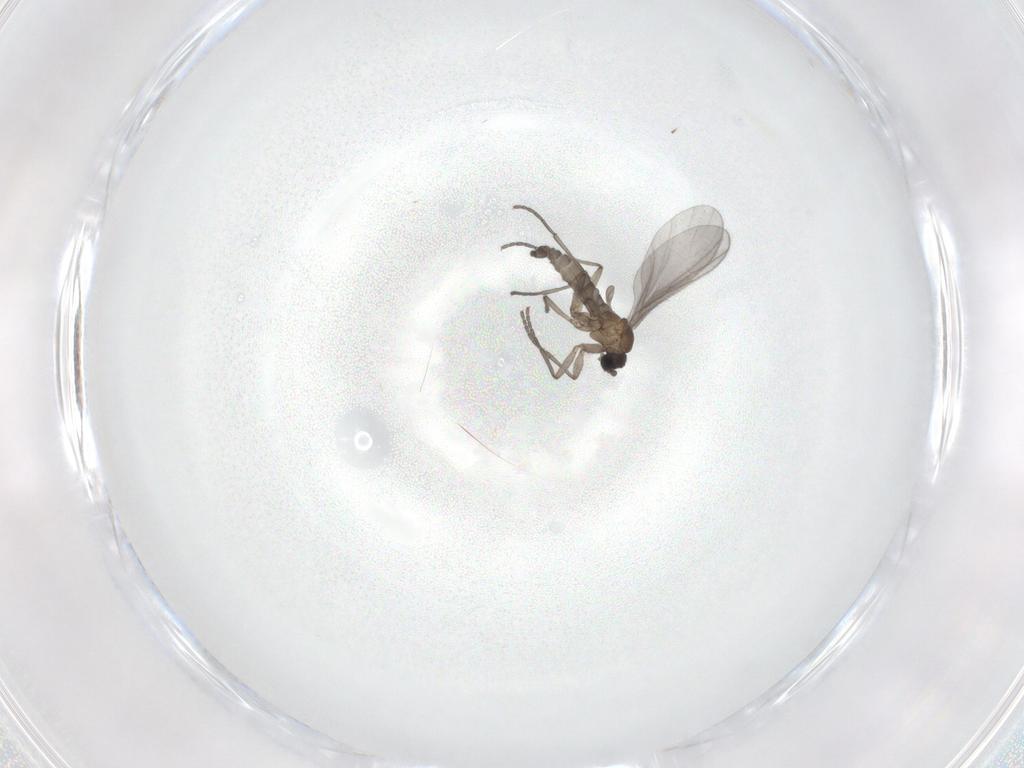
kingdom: Animalia
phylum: Arthropoda
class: Insecta
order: Diptera
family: Sciaridae
